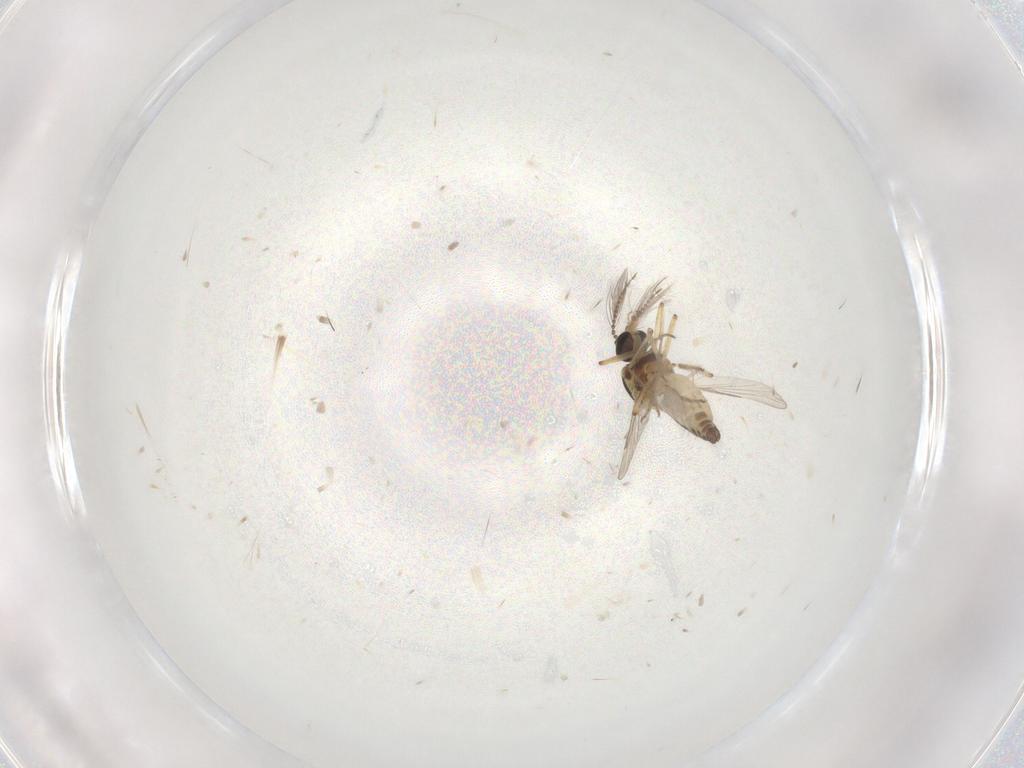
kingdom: Animalia
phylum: Arthropoda
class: Insecta
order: Diptera
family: Ceratopogonidae
